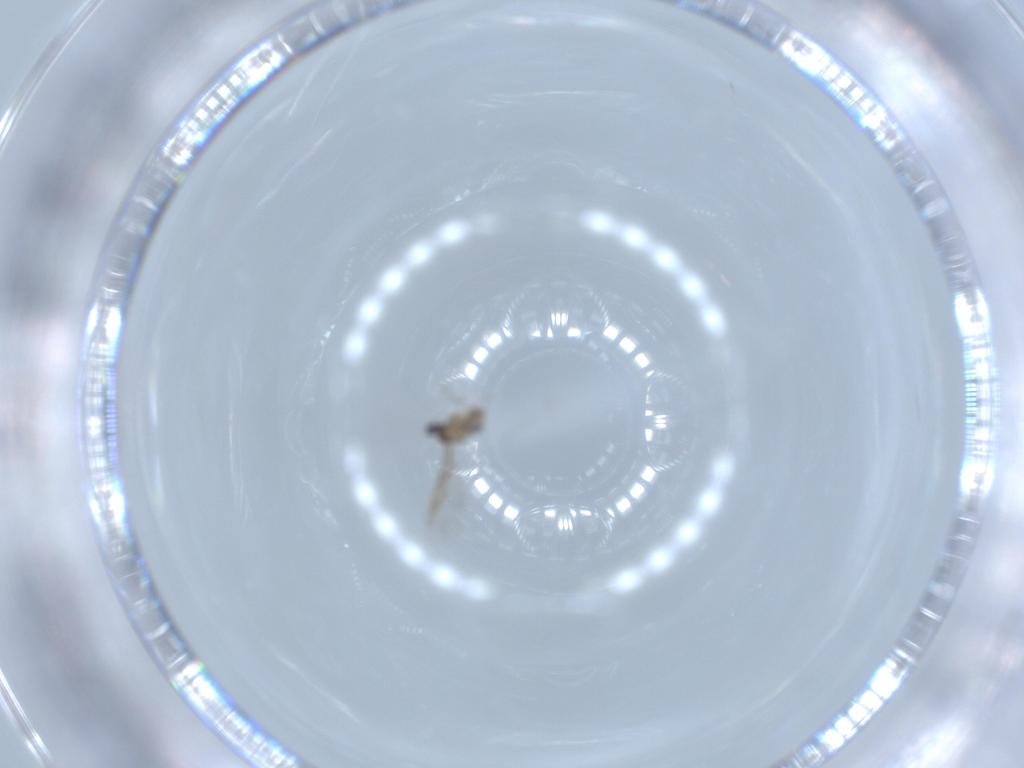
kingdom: Animalia
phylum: Arthropoda
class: Insecta
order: Diptera
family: Cecidomyiidae
